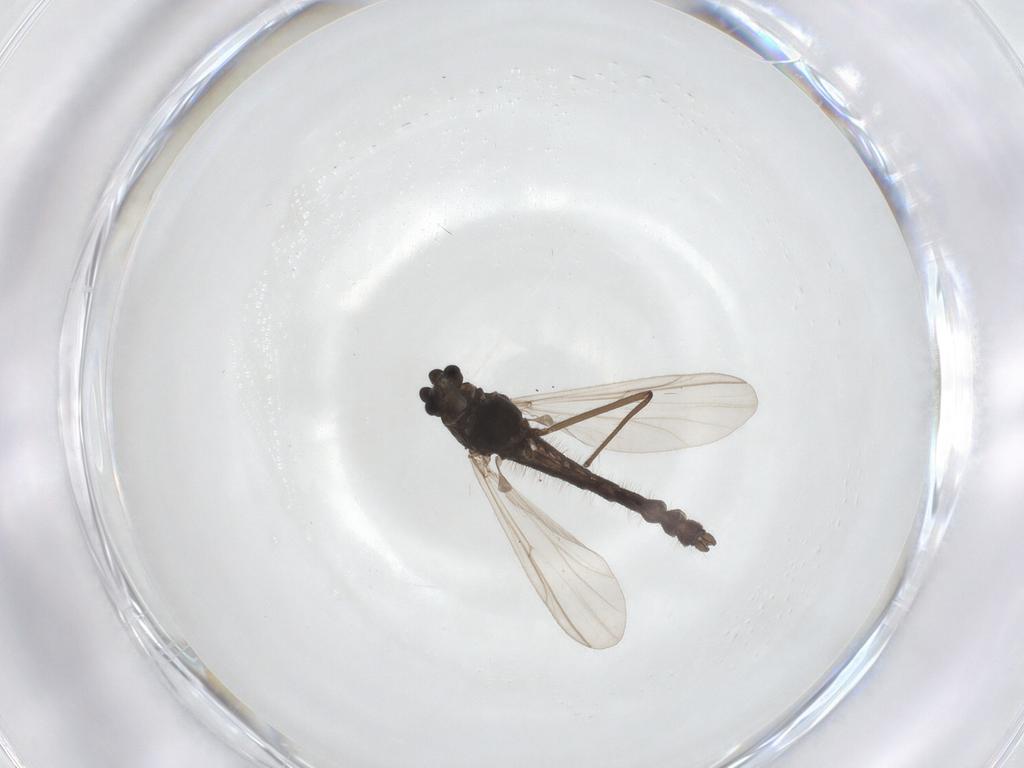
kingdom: Animalia
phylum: Arthropoda
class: Insecta
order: Diptera
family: Chironomidae
